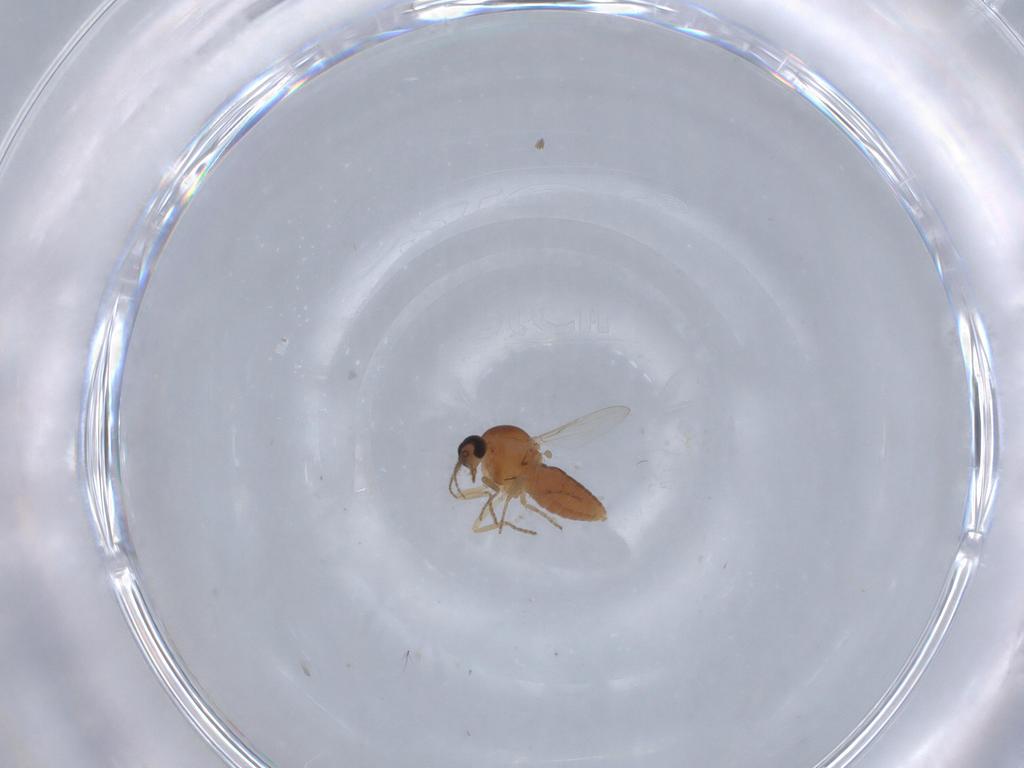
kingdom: Animalia
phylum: Arthropoda
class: Insecta
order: Diptera
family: Ceratopogonidae
